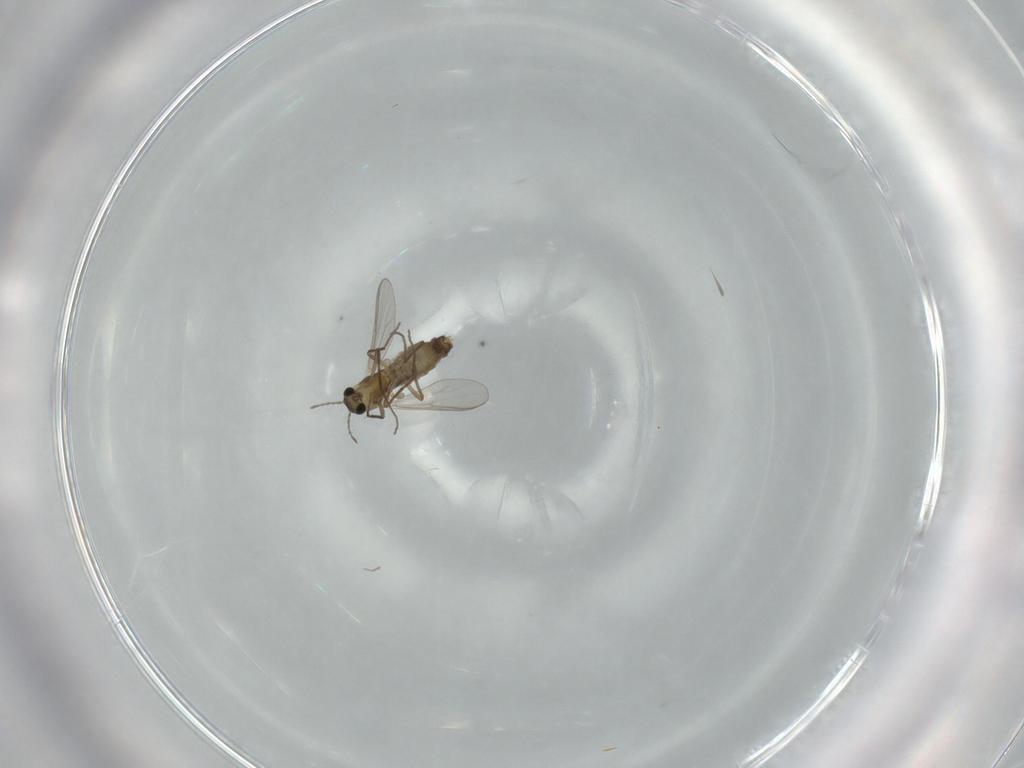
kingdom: Animalia
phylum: Arthropoda
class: Insecta
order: Diptera
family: Chironomidae
